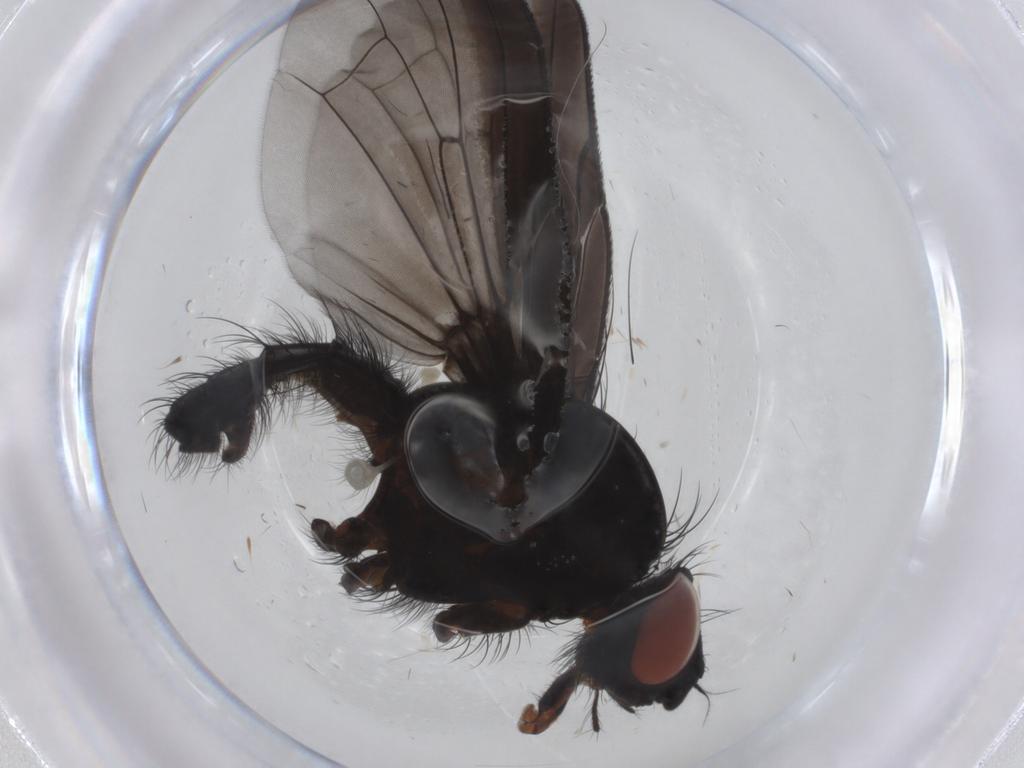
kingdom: Animalia
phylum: Arthropoda
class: Insecta
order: Diptera
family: Anthomyiidae
